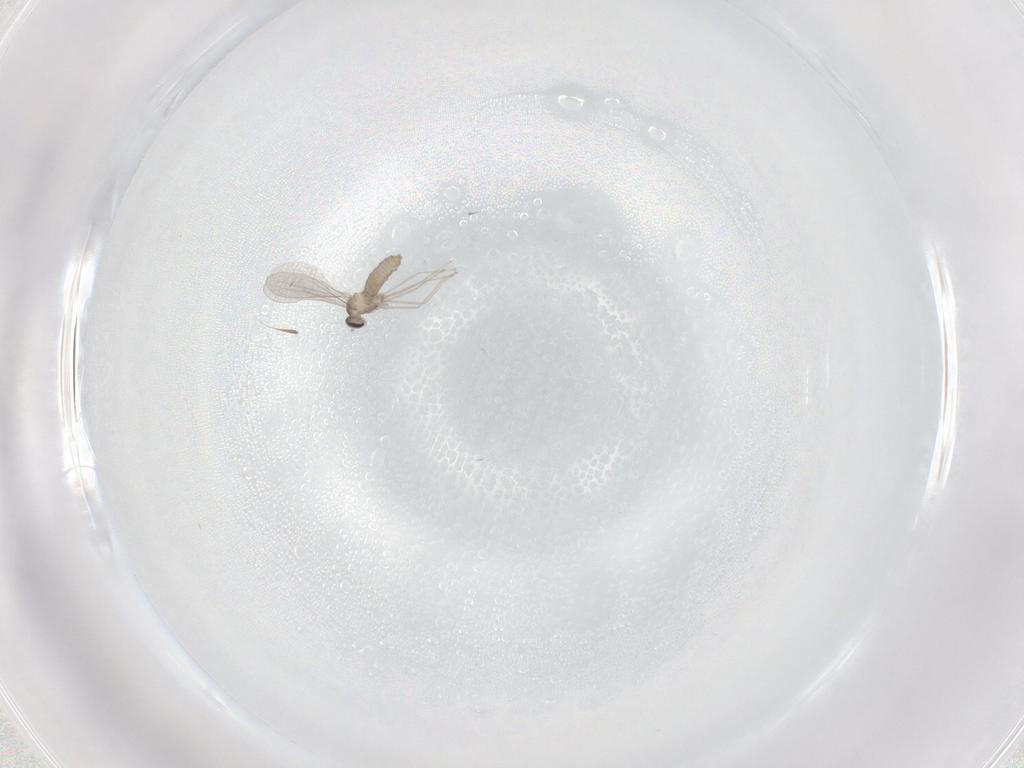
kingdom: Animalia
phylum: Arthropoda
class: Insecta
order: Diptera
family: Cecidomyiidae
